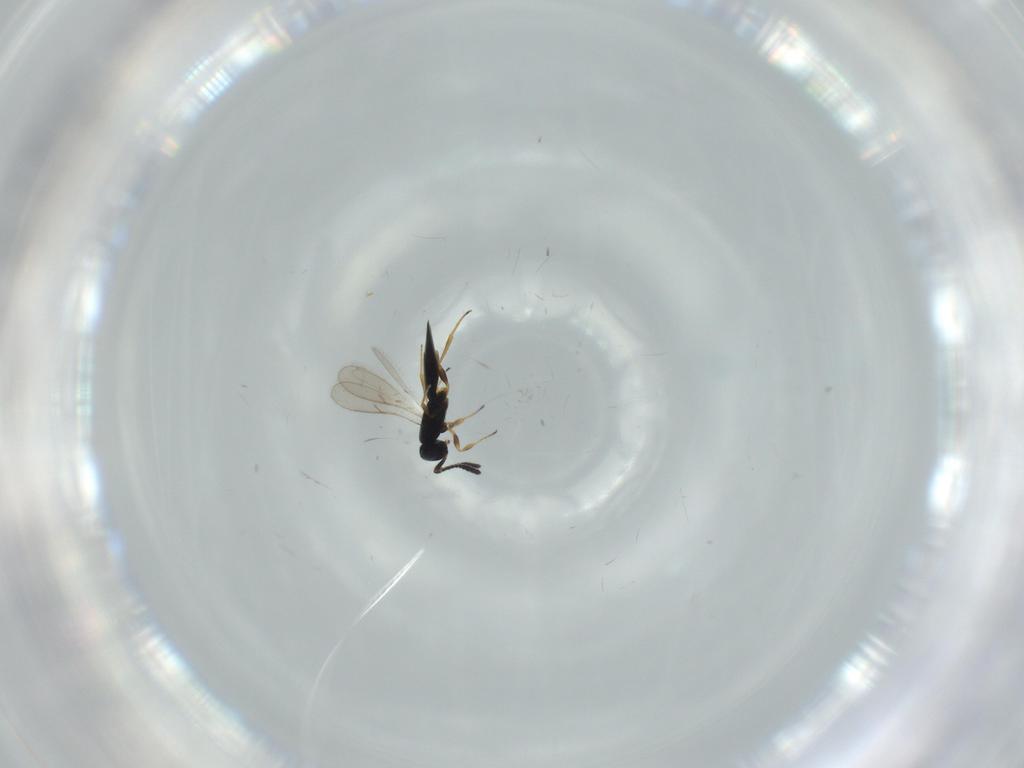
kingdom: Animalia
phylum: Arthropoda
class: Insecta
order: Hymenoptera
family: Scelionidae
